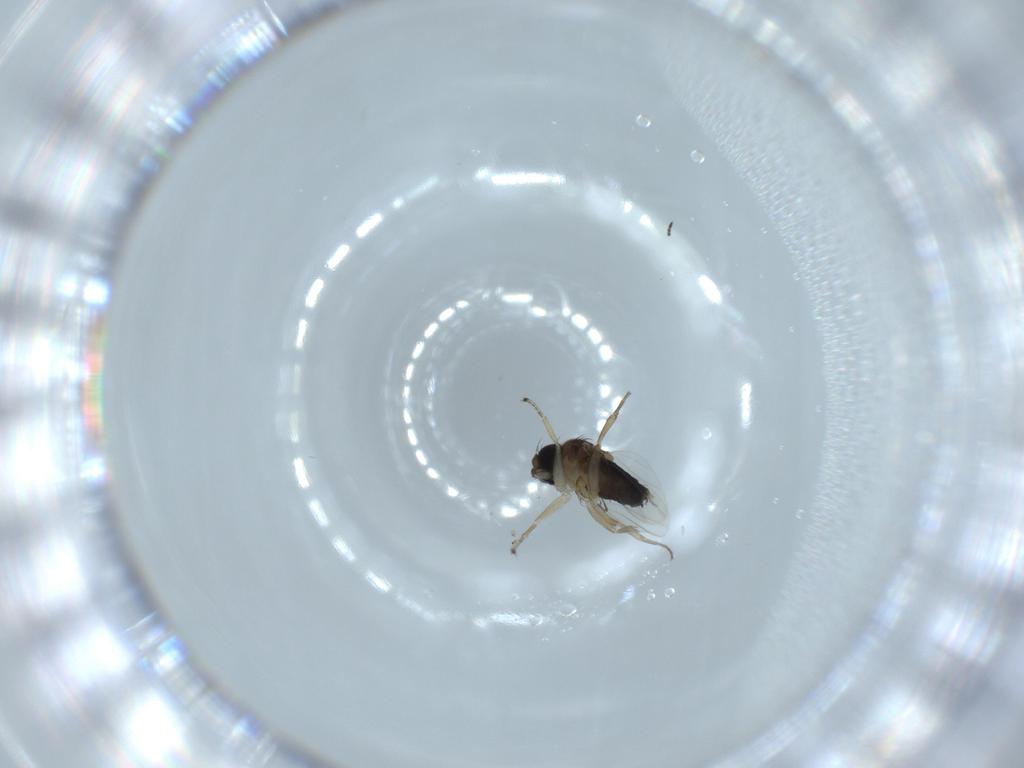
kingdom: Animalia
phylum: Arthropoda
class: Insecta
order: Diptera
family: Phoridae
